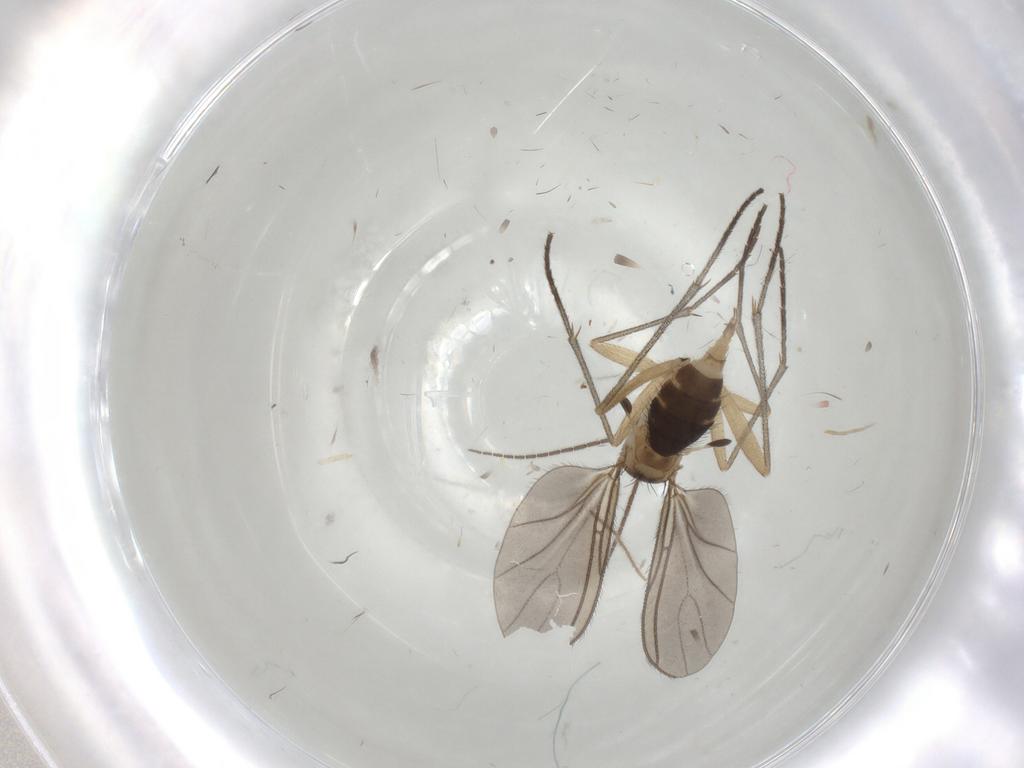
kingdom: Animalia
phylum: Arthropoda
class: Insecta
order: Diptera
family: Sciaridae
